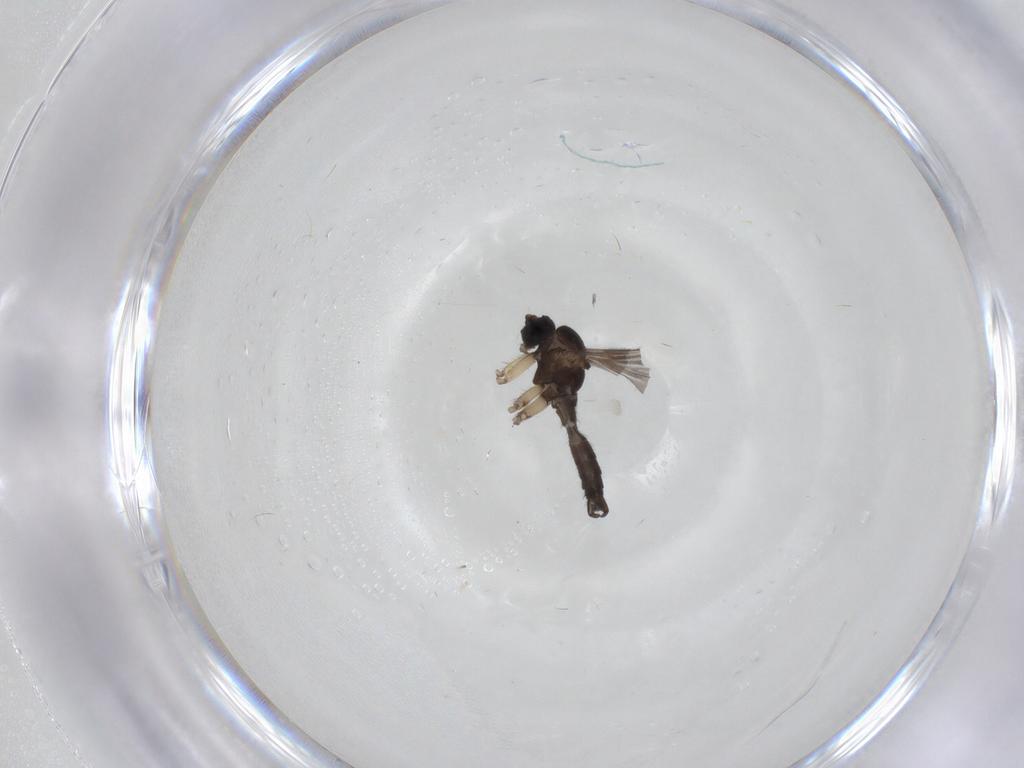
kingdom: Animalia
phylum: Arthropoda
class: Insecta
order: Diptera
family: Sciaridae
